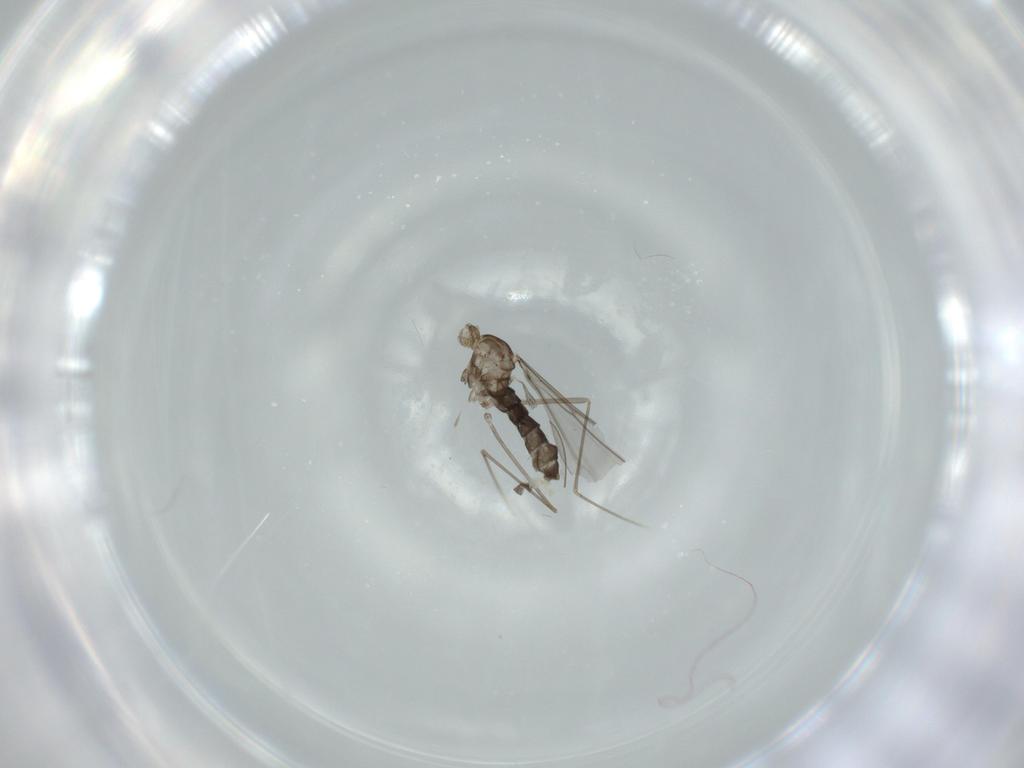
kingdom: Animalia
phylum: Arthropoda
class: Insecta
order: Diptera
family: Cecidomyiidae
